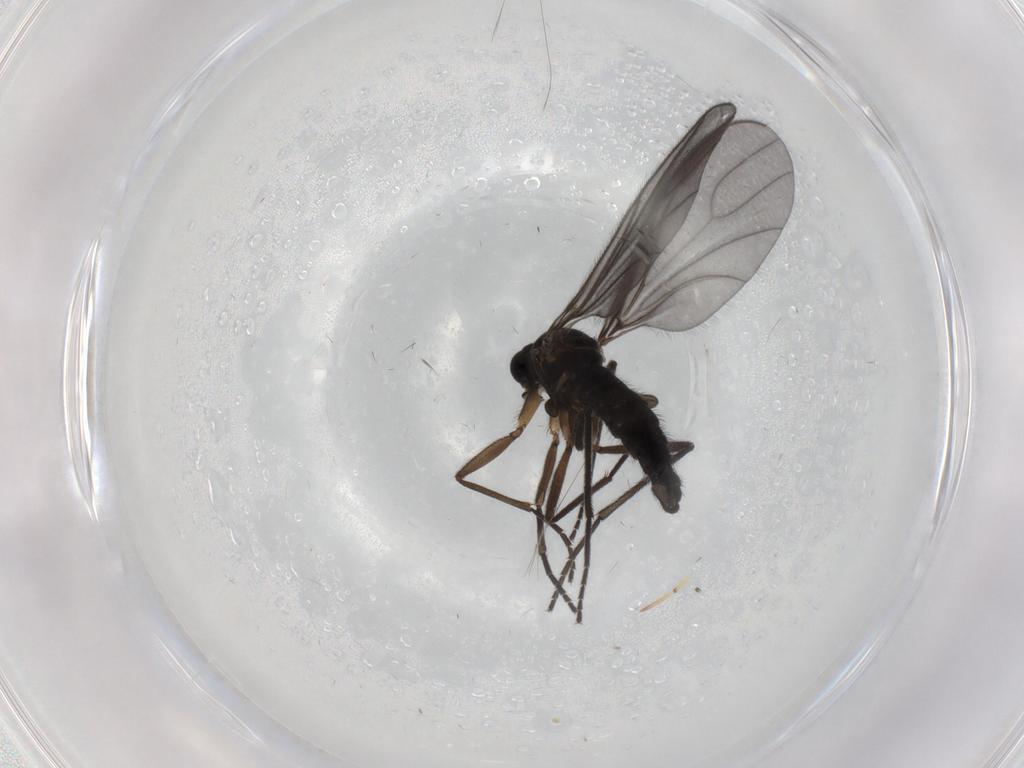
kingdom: Animalia
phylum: Arthropoda
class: Insecta
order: Diptera
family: Sciaridae
